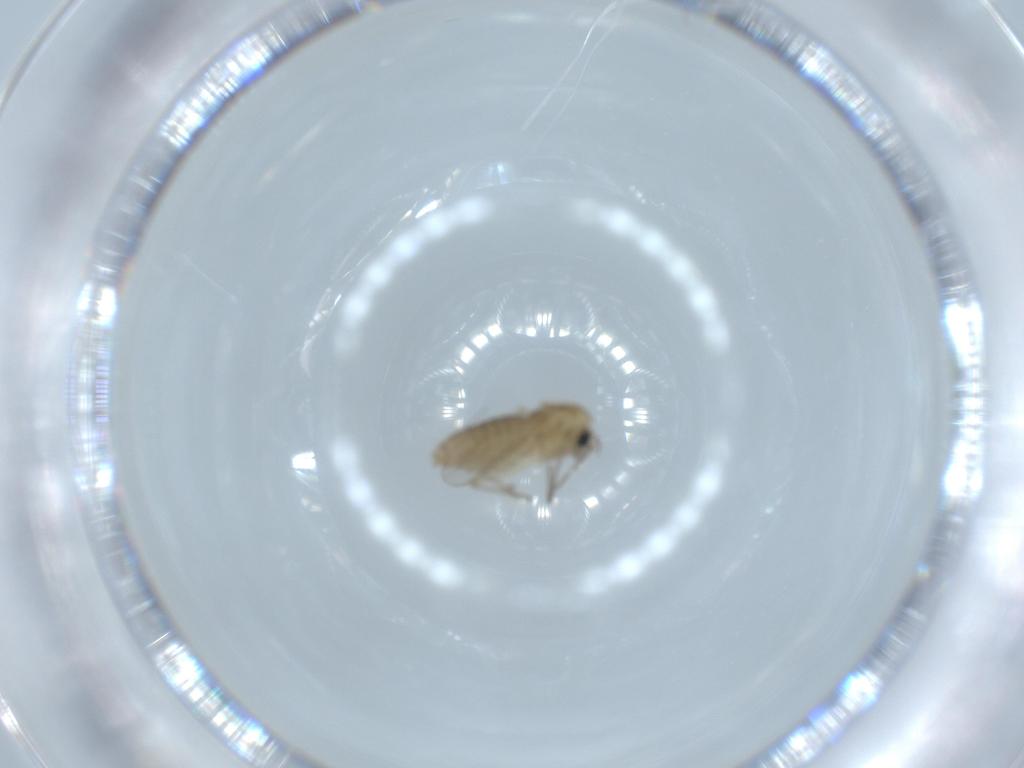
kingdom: Animalia
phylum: Arthropoda
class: Insecta
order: Diptera
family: Chironomidae
